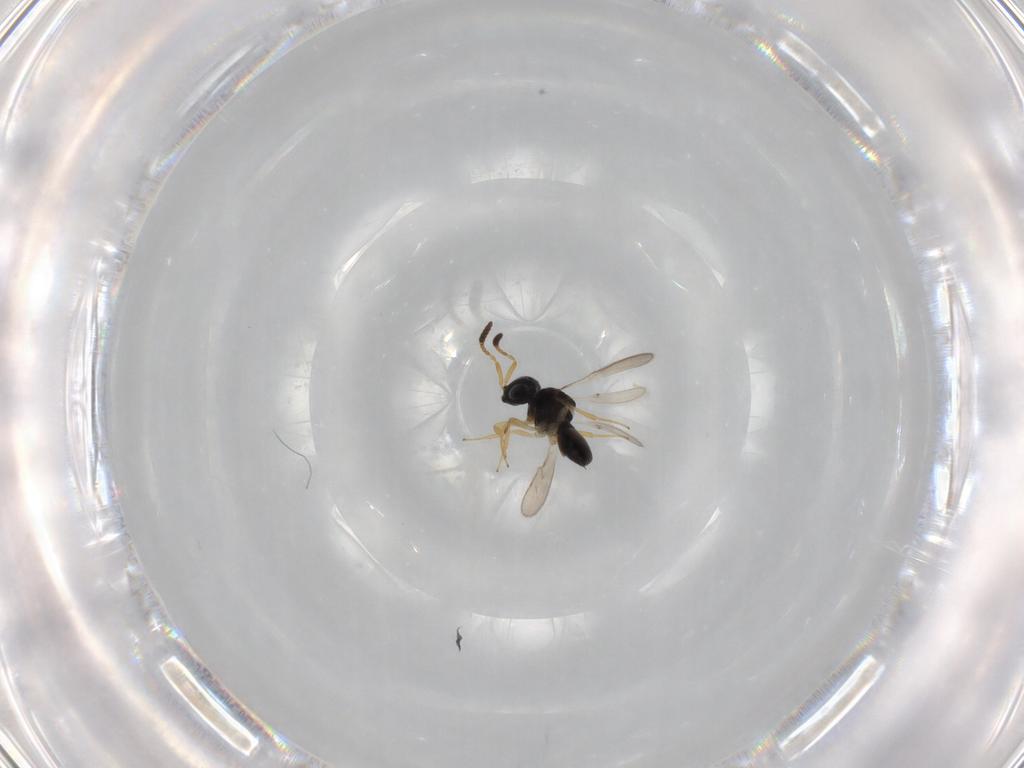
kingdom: Animalia
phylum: Arthropoda
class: Insecta
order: Hymenoptera
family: Scelionidae
